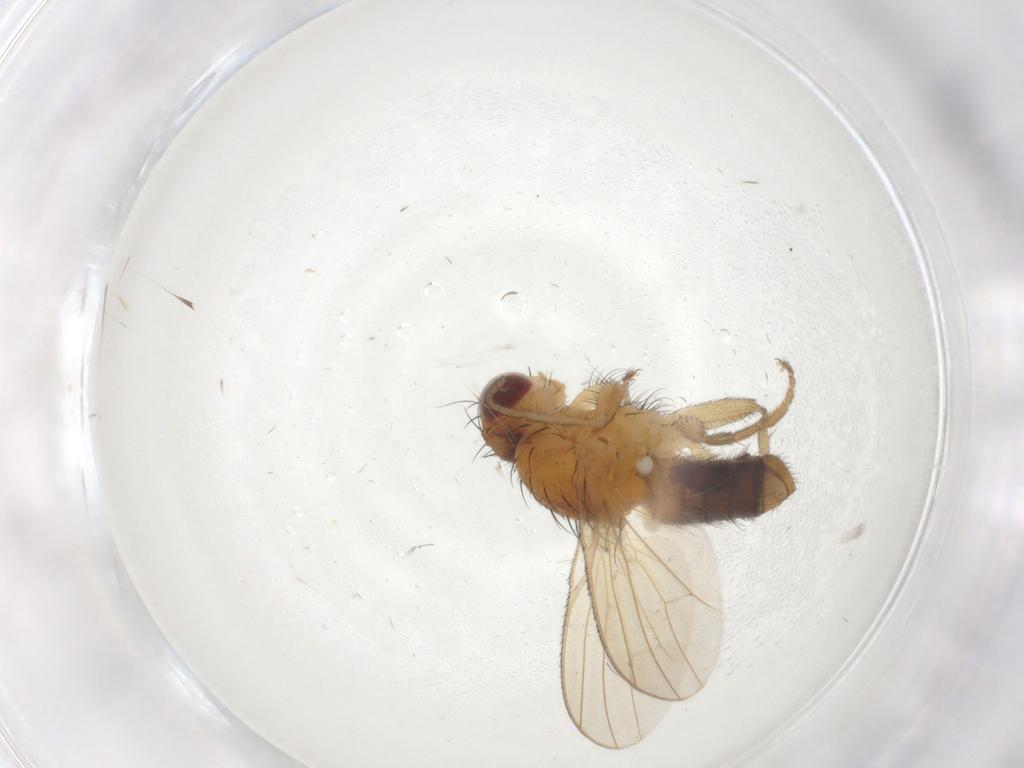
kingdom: Animalia
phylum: Arthropoda
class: Insecta
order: Diptera
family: Heleomyzidae
